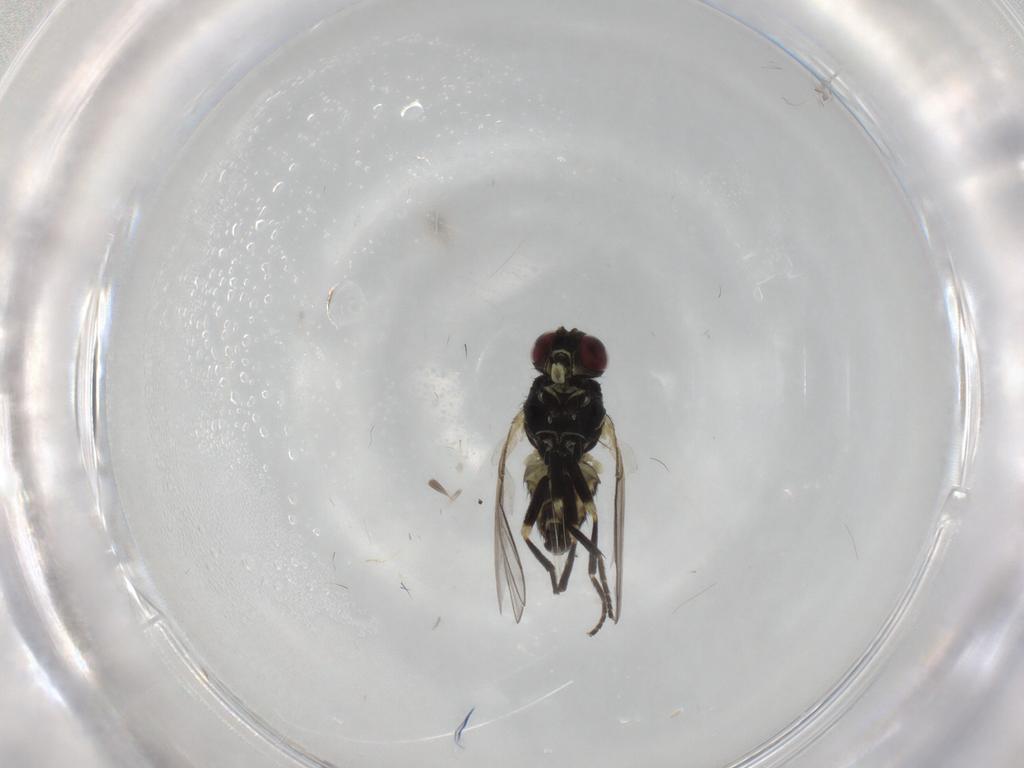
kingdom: Animalia
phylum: Arthropoda
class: Insecta
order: Diptera
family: Agromyzidae
